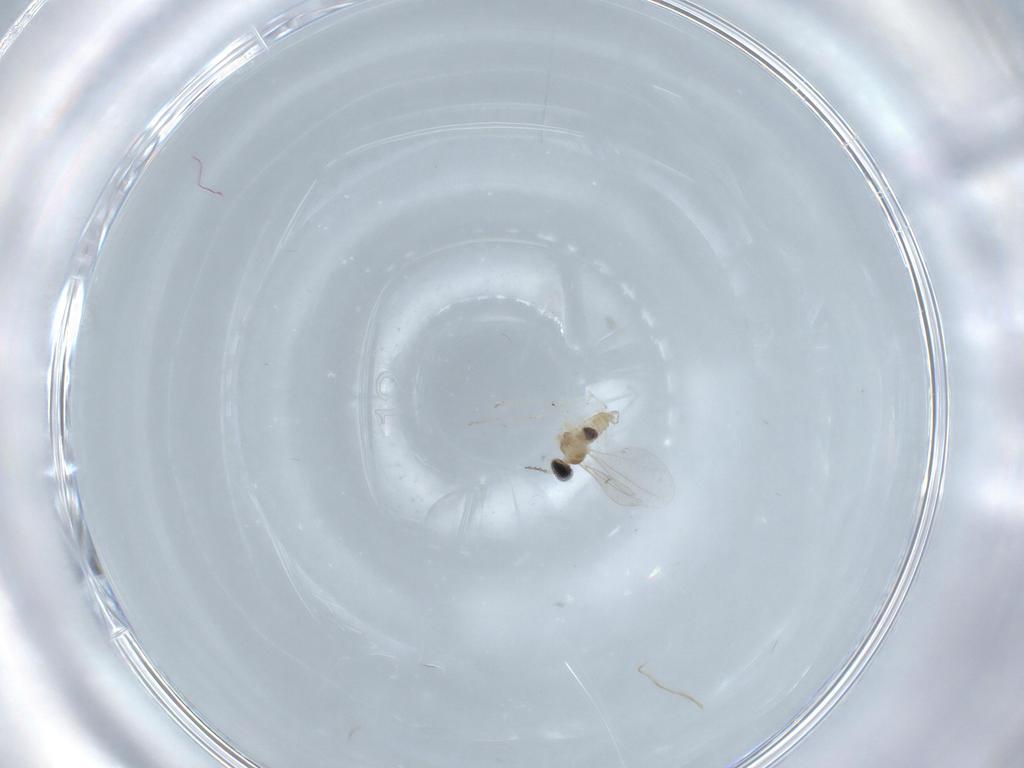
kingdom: Animalia
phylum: Arthropoda
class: Insecta
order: Diptera
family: Cecidomyiidae
